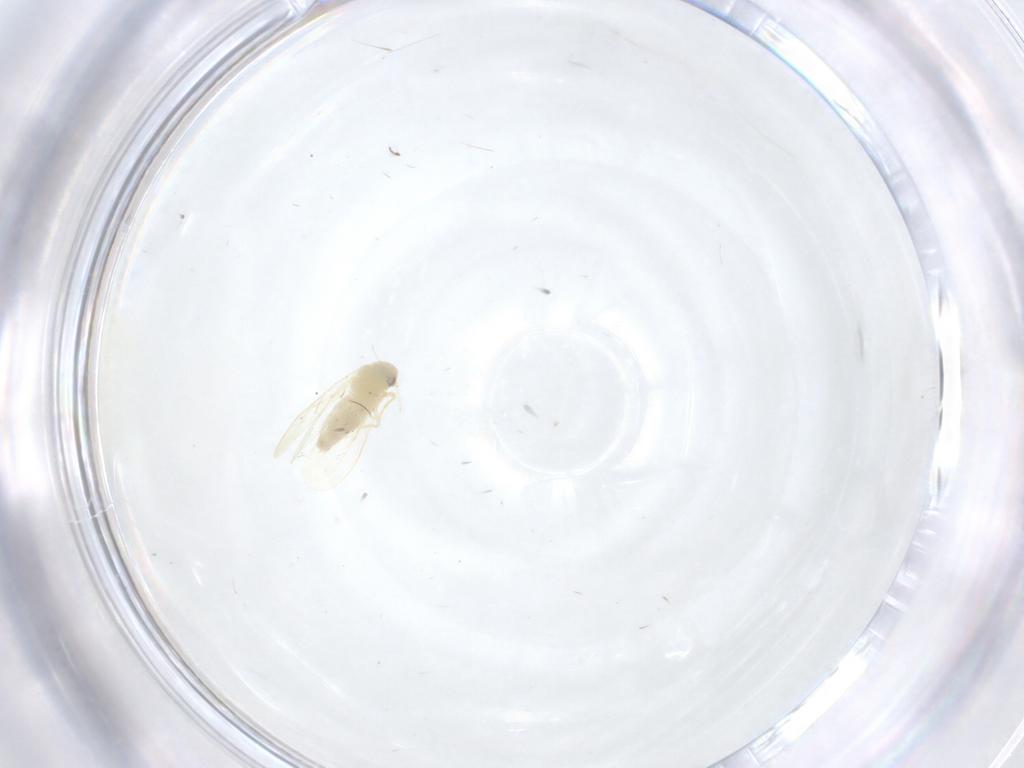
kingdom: Animalia
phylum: Arthropoda
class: Insecta
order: Hemiptera
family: Aleyrodidae
